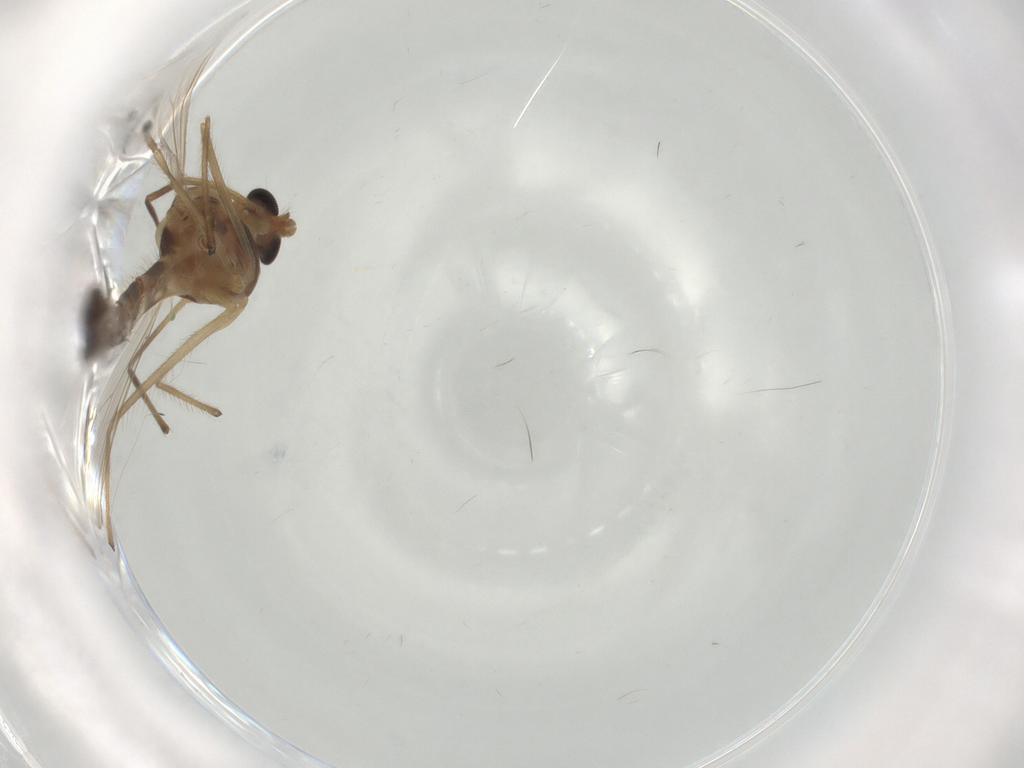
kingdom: Animalia
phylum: Arthropoda
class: Insecta
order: Diptera
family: Chironomidae
